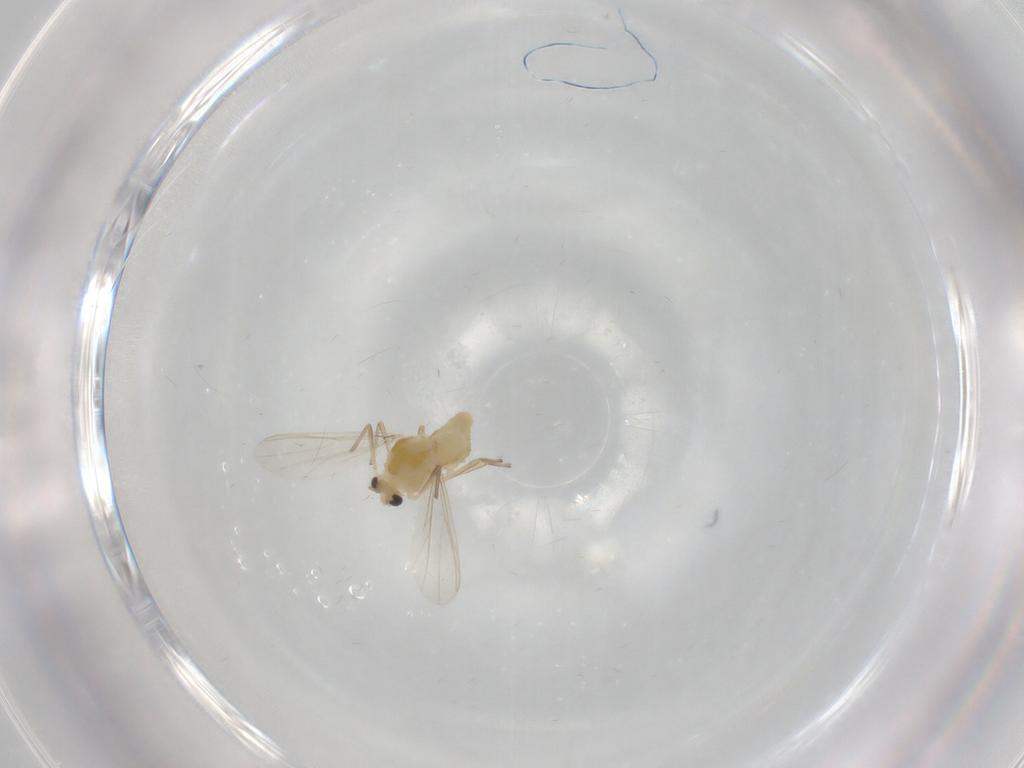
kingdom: Animalia
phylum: Arthropoda
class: Insecta
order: Diptera
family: Chironomidae
